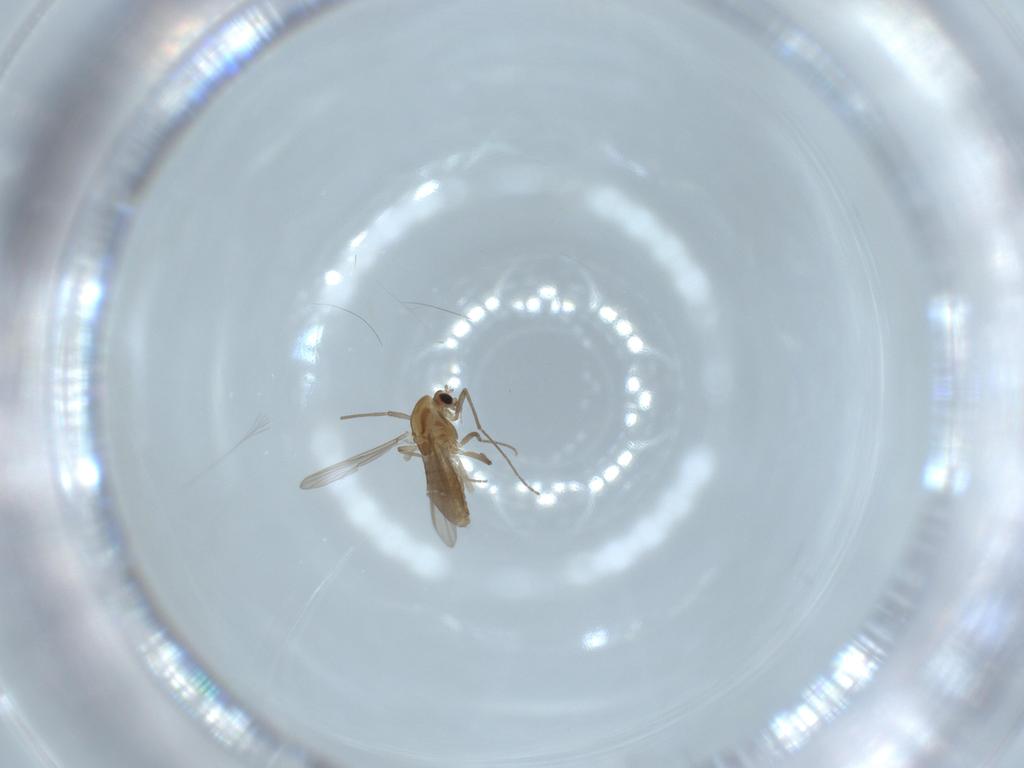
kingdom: Animalia
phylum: Arthropoda
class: Insecta
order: Diptera
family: Chironomidae
